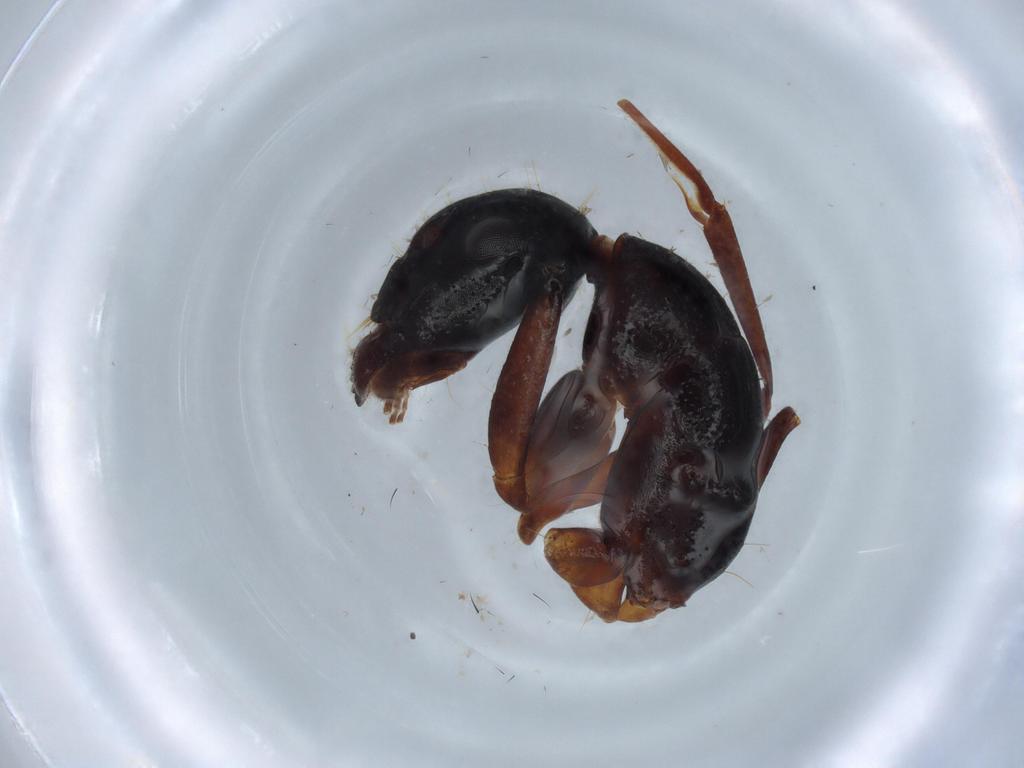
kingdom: Animalia
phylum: Arthropoda
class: Insecta
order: Hymenoptera
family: Formicidae
